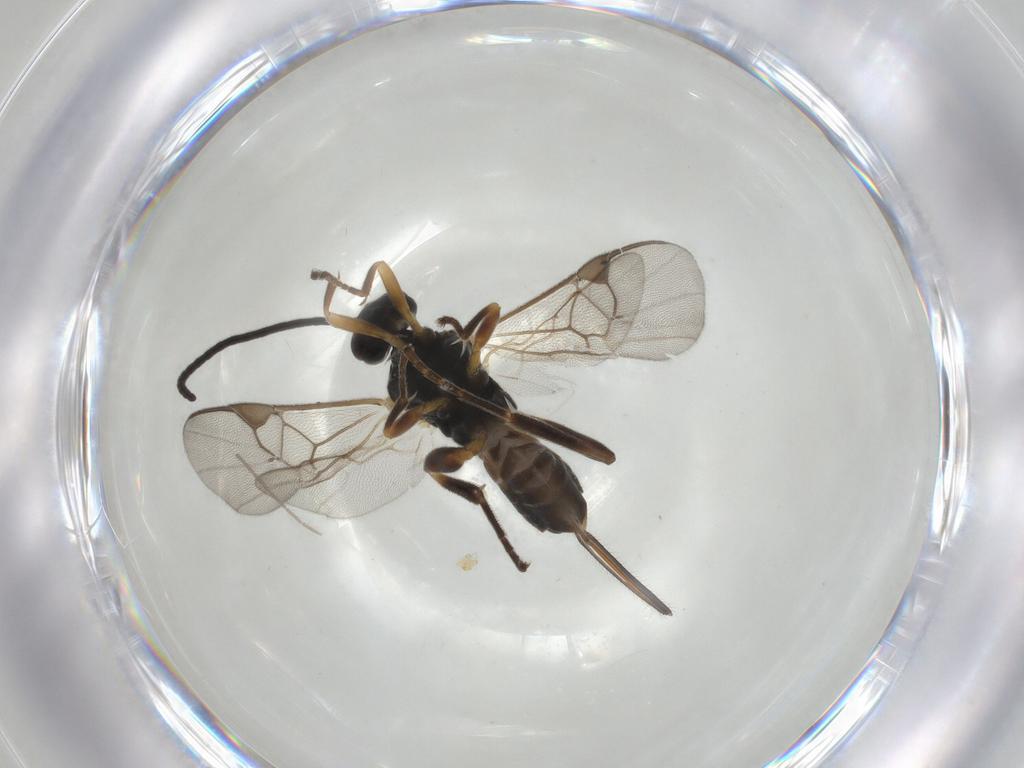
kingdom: Animalia
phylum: Arthropoda
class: Insecta
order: Hymenoptera
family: Braconidae
